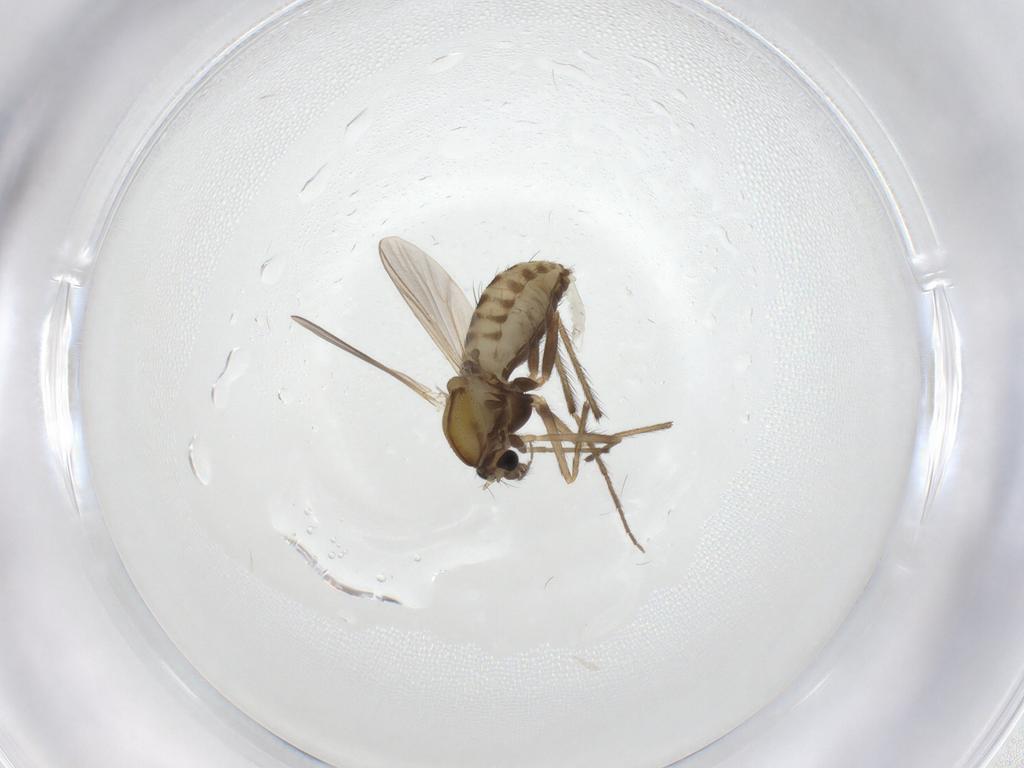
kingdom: Animalia
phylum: Arthropoda
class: Insecta
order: Diptera
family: Chironomidae
